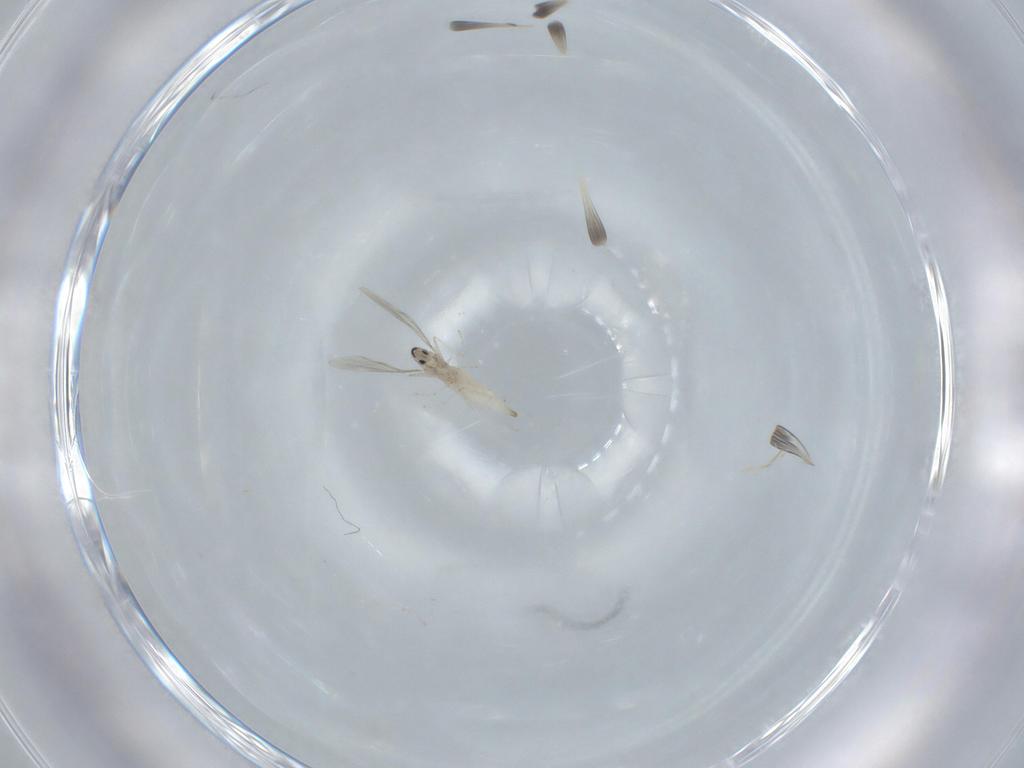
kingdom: Animalia
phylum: Arthropoda
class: Insecta
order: Diptera
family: Cecidomyiidae
